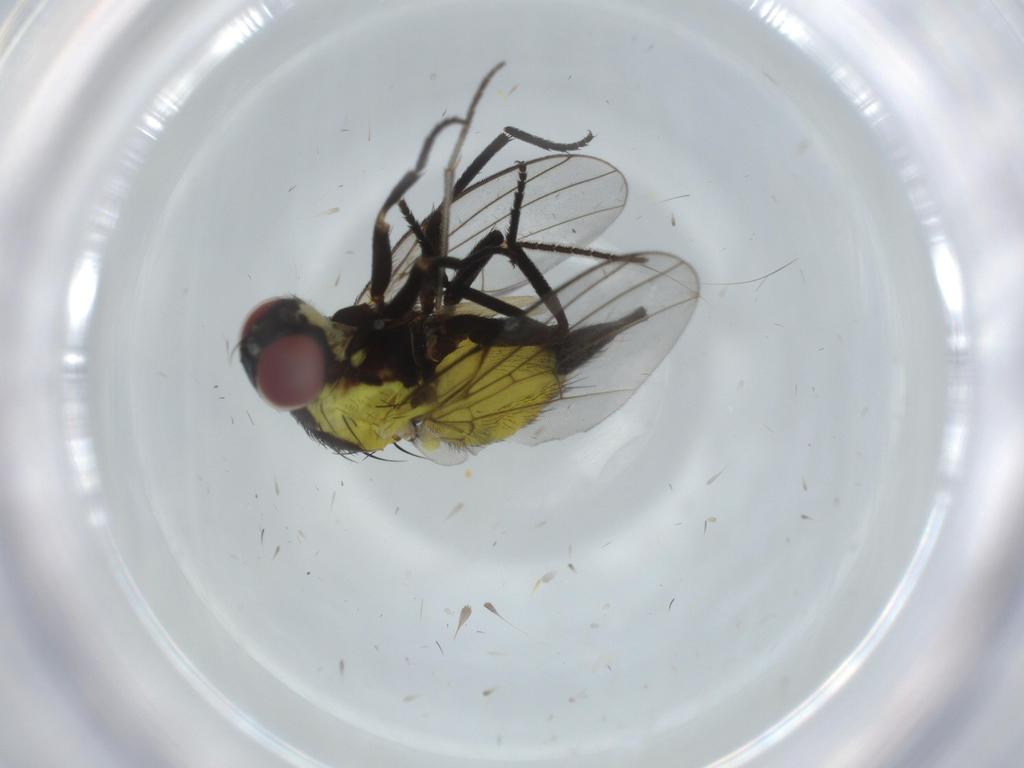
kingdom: Animalia
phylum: Arthropoda
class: Insecta
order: Diptera
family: Agromyzidae
